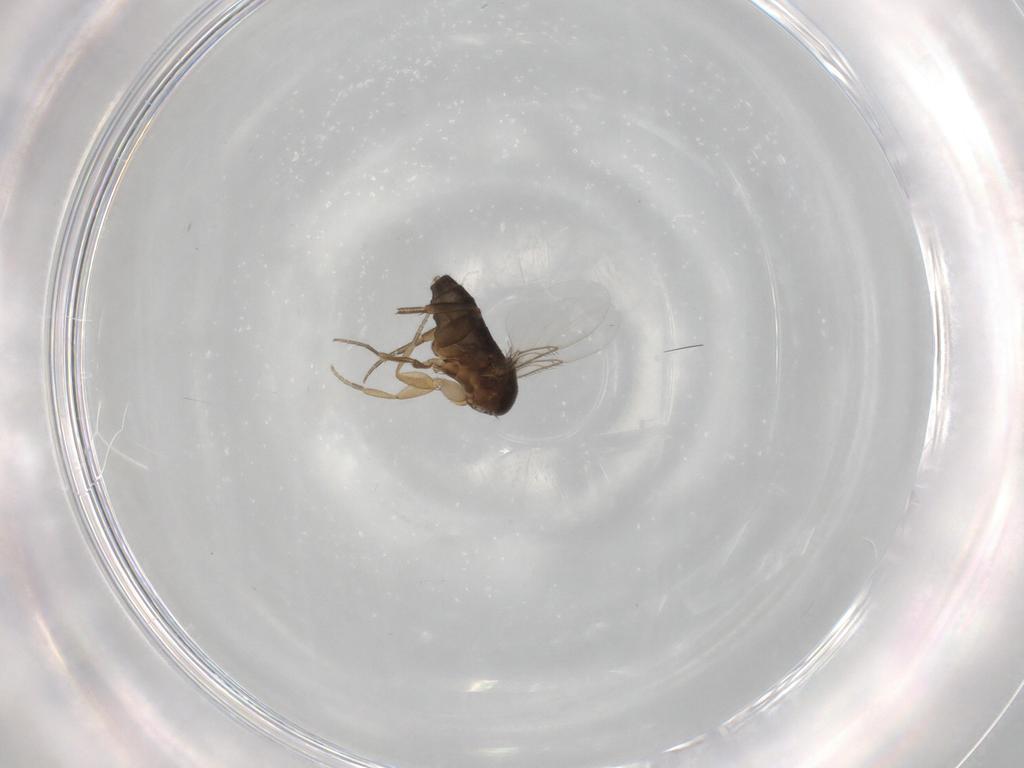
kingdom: Animalia
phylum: Arthropoda
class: Insecta
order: Diptera
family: Phoridae
